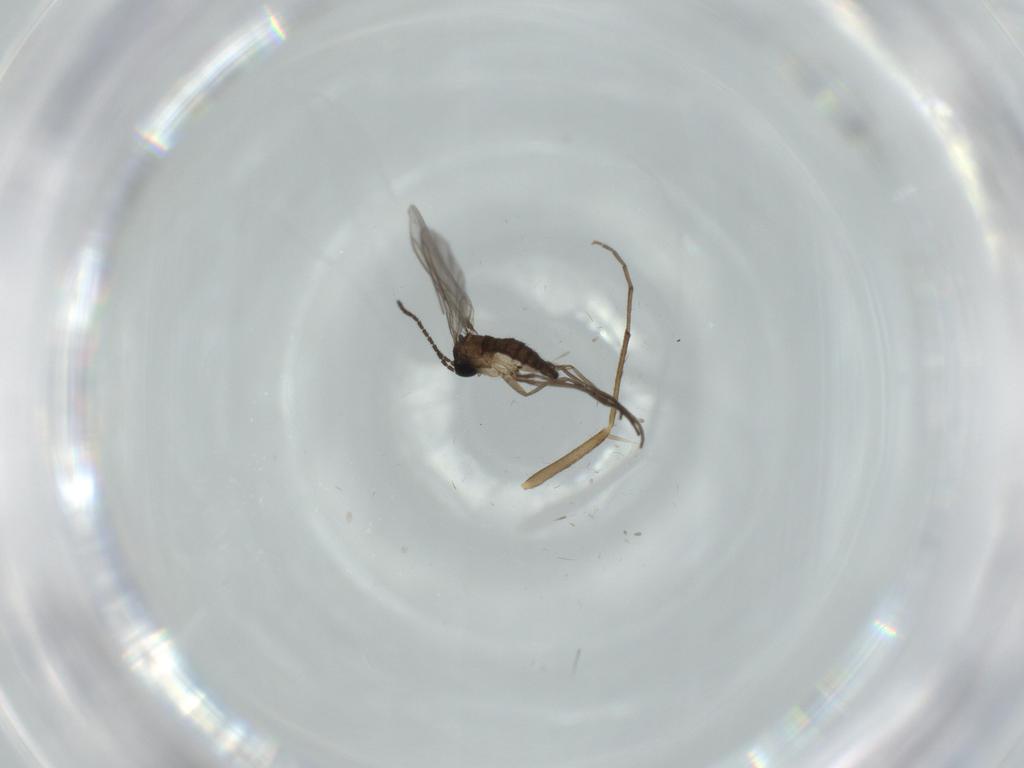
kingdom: Animalia
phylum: Arthropoda
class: Insecta
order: Diptera
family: Sciaridae
